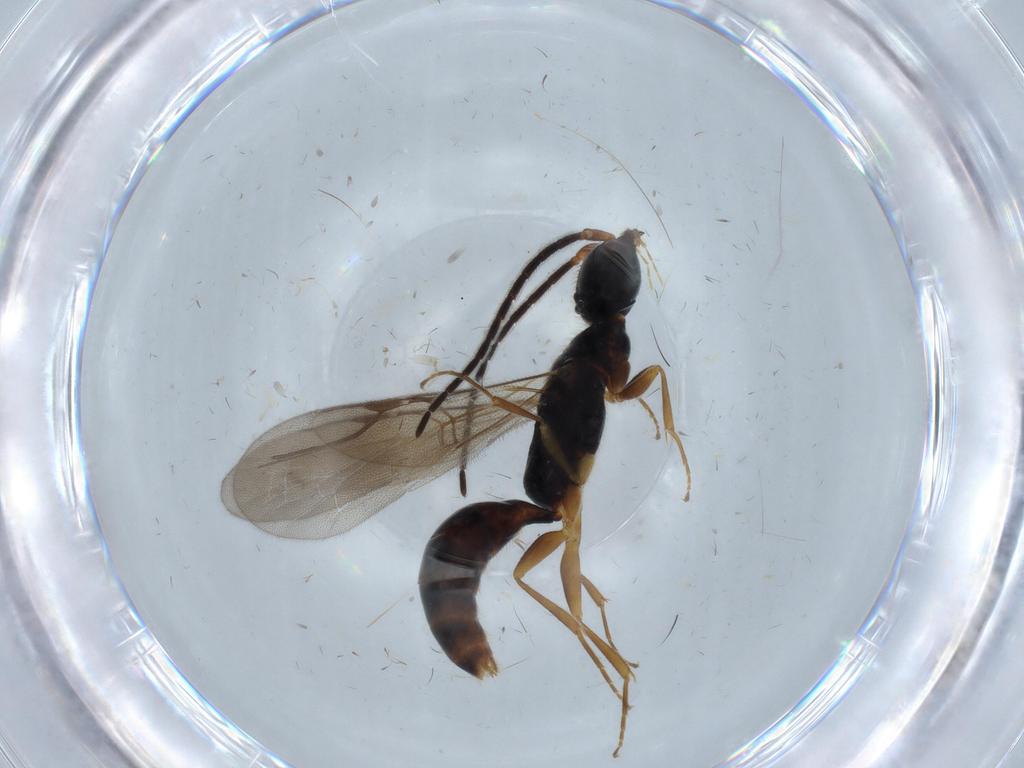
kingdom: Animalia
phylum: Arthropoda
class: Insecta
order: Hymenoptera
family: Bethylidae
